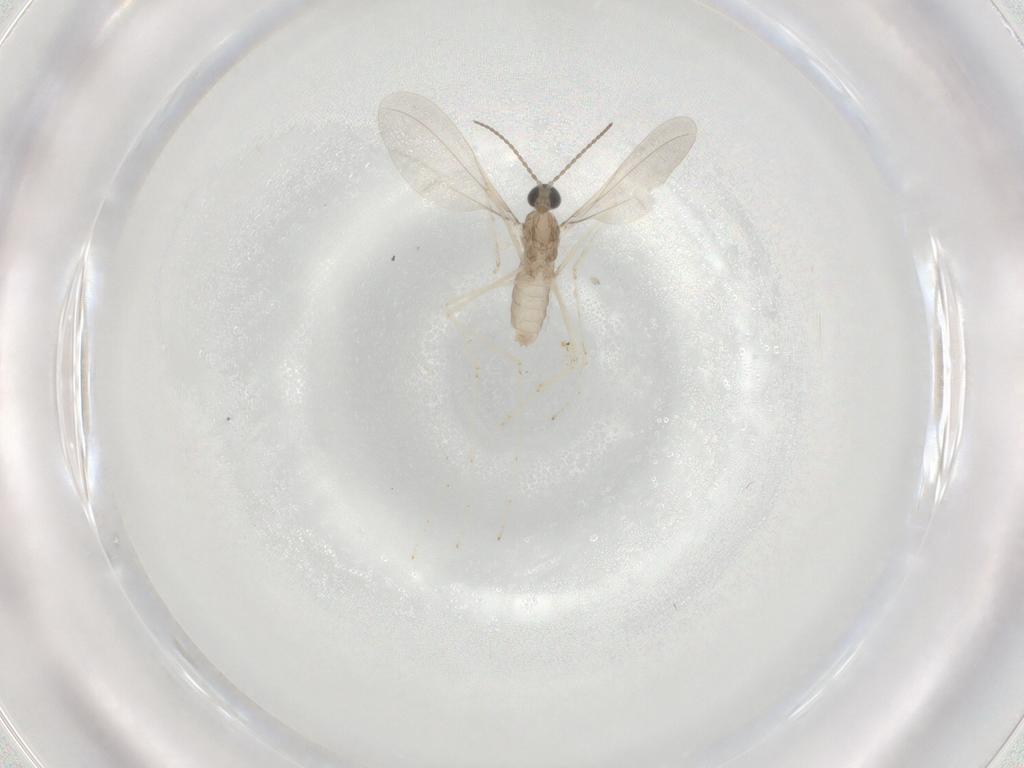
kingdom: Animalia
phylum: Arthropoda
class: Insecta
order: Diptera
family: Cecidomyiidae
